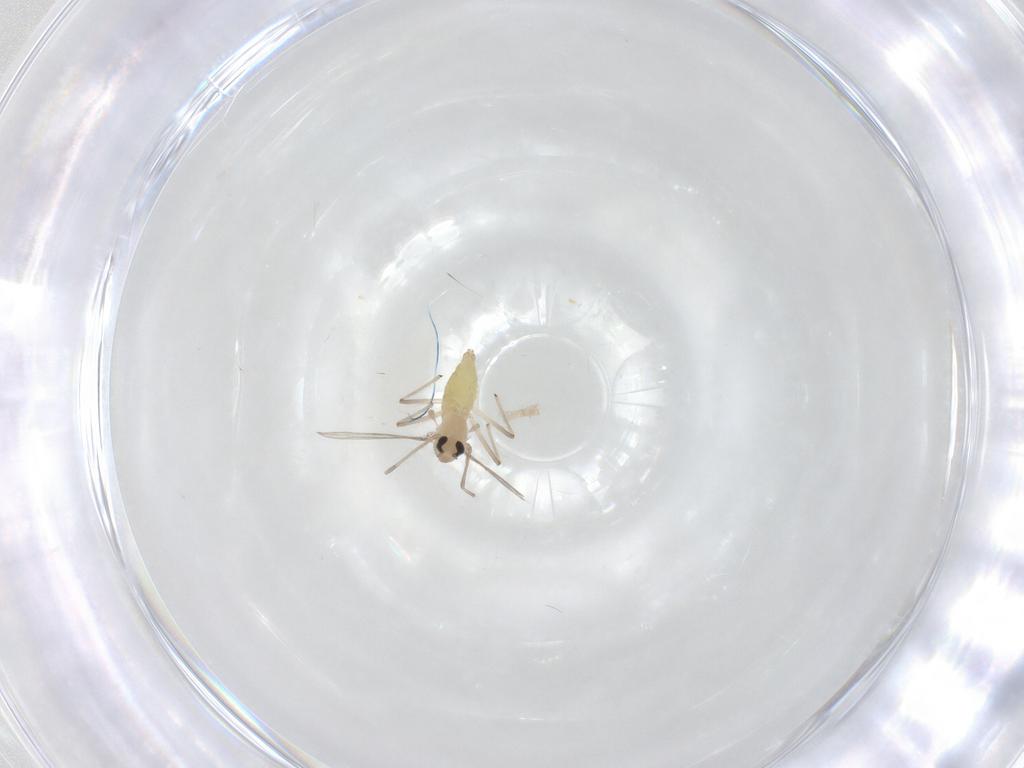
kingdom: Animalia
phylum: Arthropoda
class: Insecta
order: Diptera
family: Chironomidae
